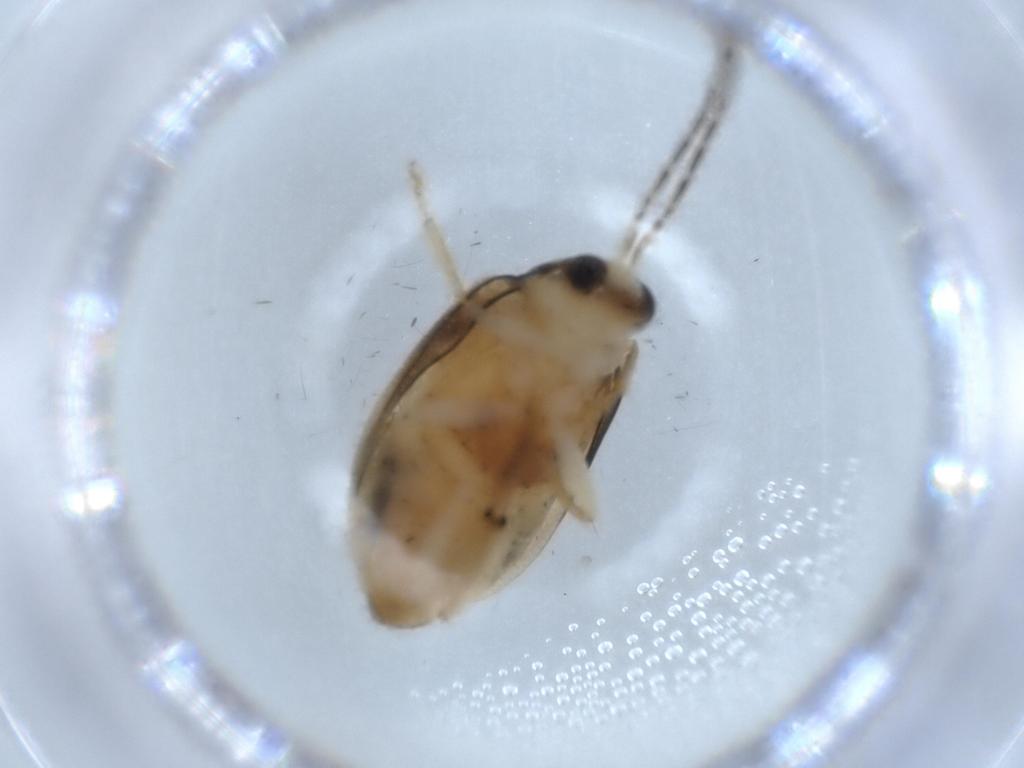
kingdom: Animalia
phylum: Arthropoda
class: Insecta
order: Coleoptera
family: Chrysomelidae
